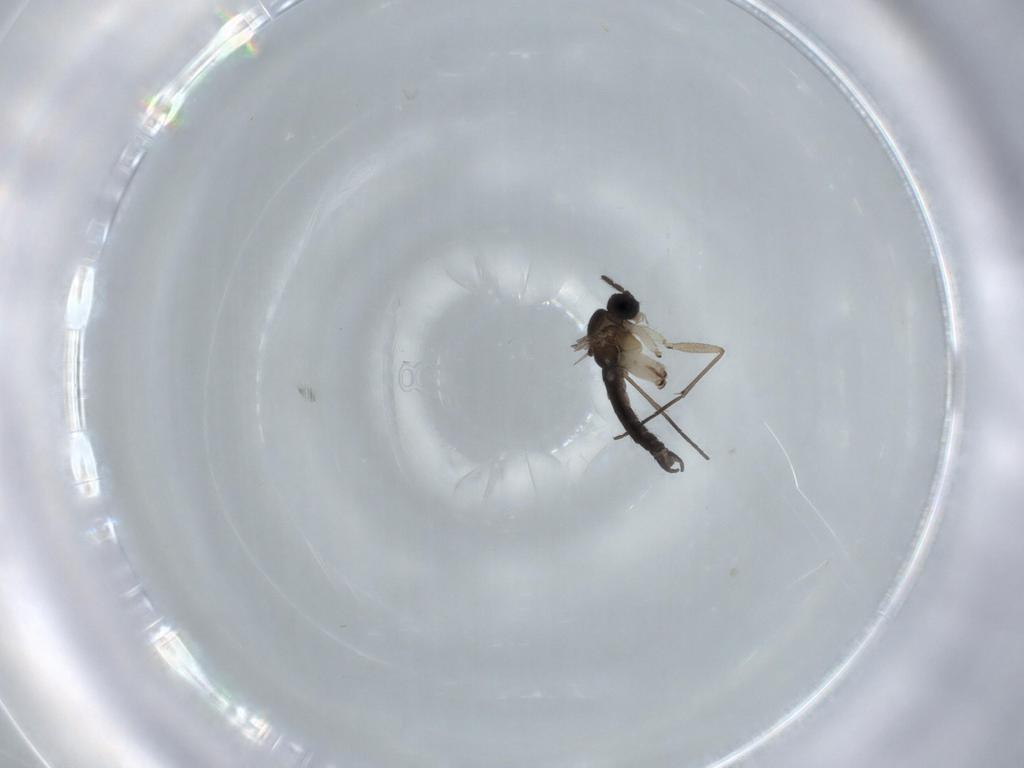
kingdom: Animalia
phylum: Arthropoda
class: Insecta
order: Diptera
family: Sciaridae
